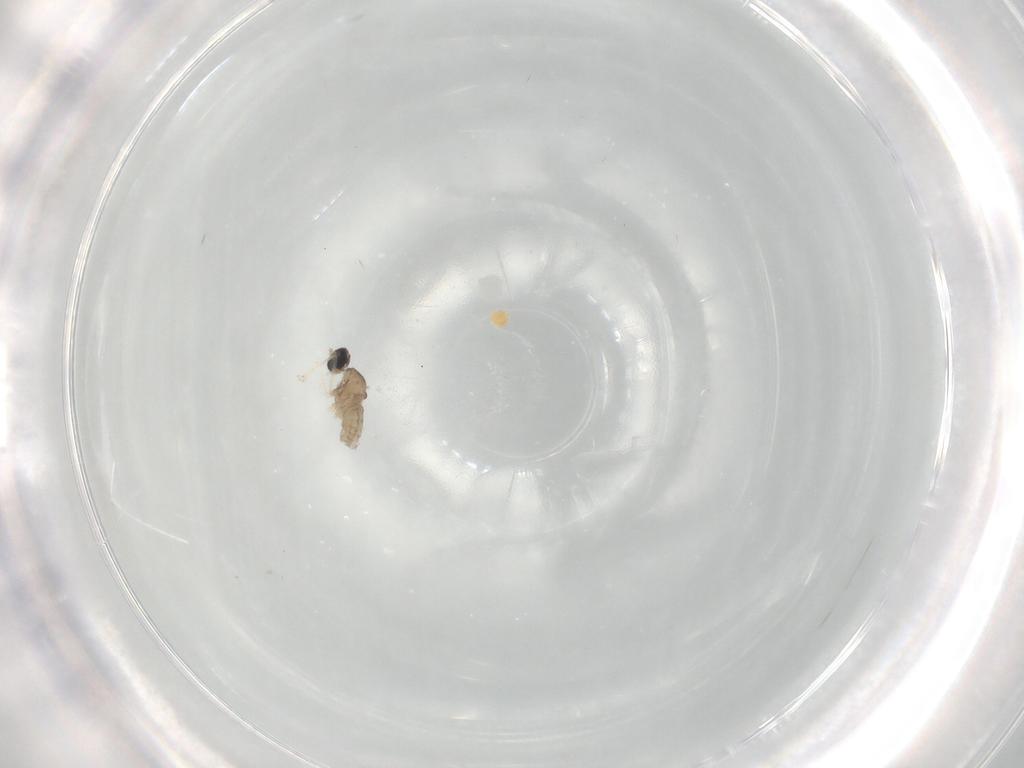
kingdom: Animalia
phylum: Arthropoda
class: Insecta
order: Diptera
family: Cecidomyiidae
